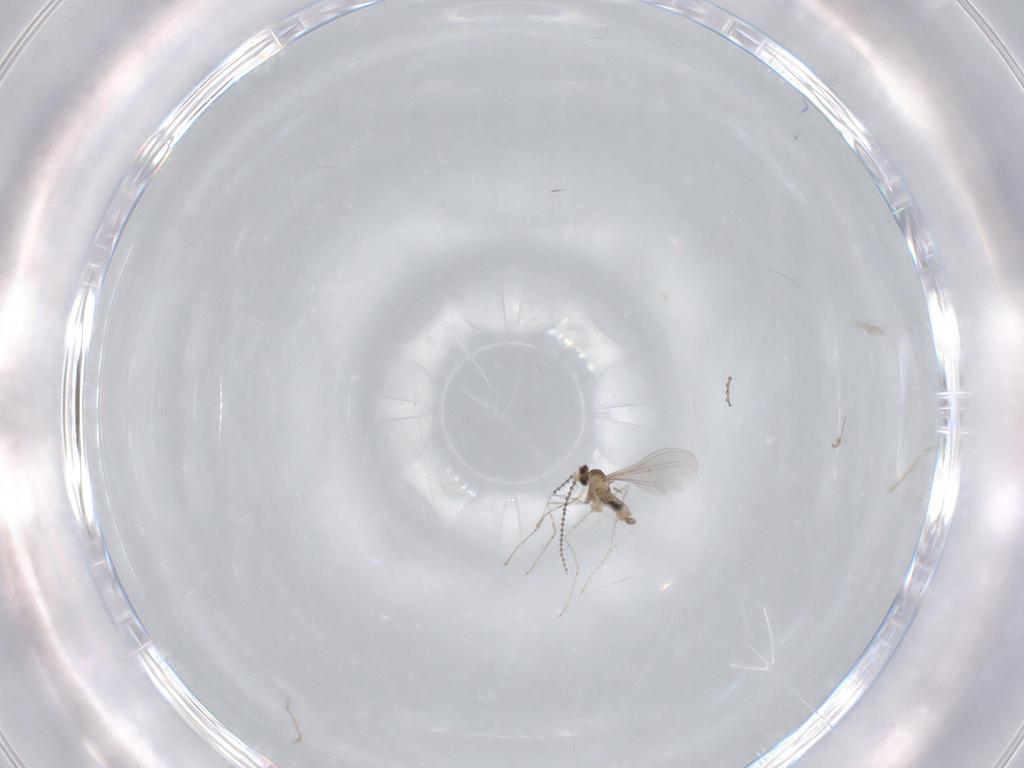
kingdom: Animalia
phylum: Arthropoda
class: Insecta
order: Diptera
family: Cecidomyiidae
